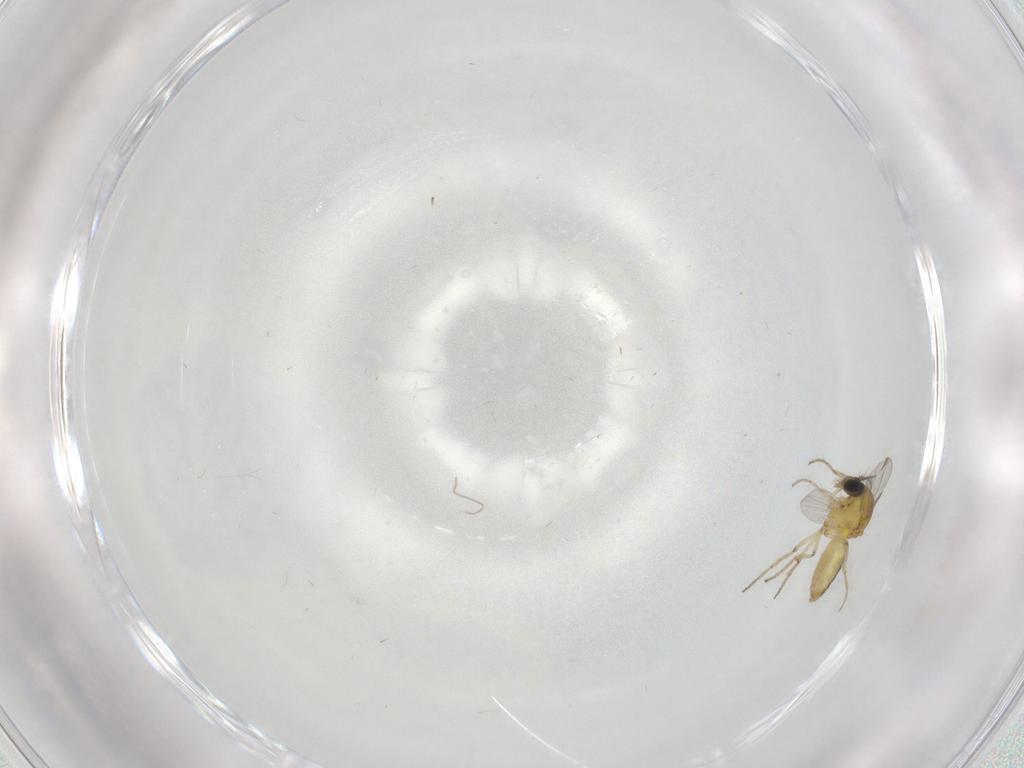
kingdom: Animalia
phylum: Arthropoda
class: Insecta
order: Diptera
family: Ceratopogonidae
